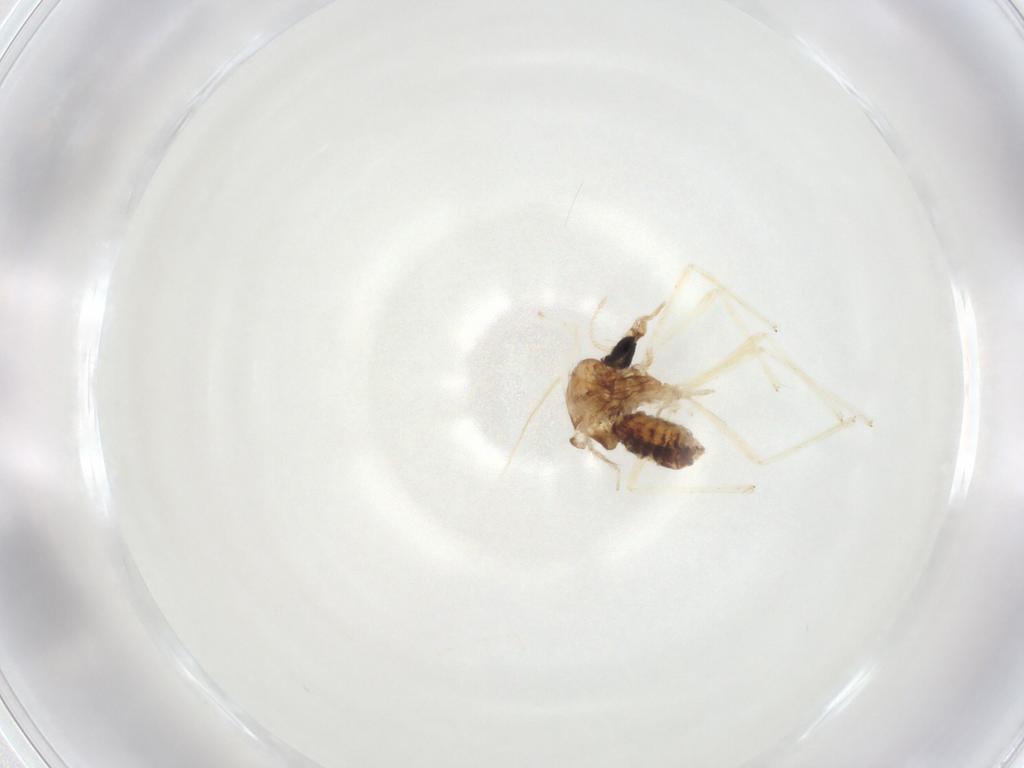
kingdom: Animalia
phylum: Arthropoda
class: Insecta
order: Diptera
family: Chironomidae
